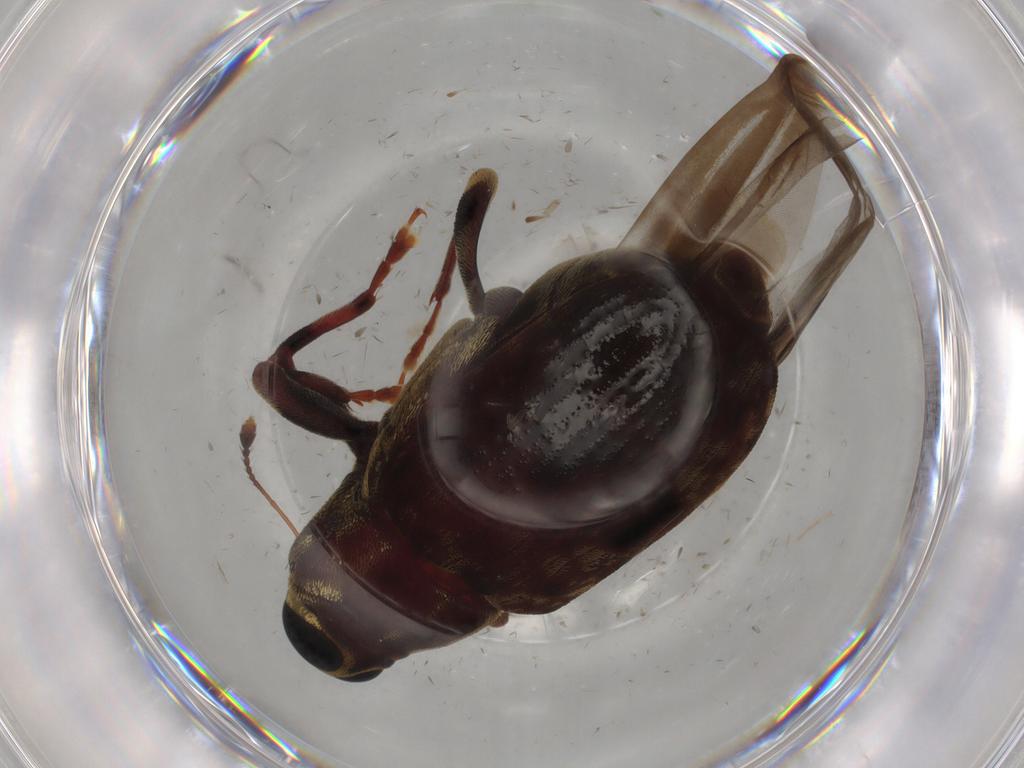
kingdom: Animalia
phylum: Arthropoda
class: Insecta
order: Coleoptera
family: Curculionidae
